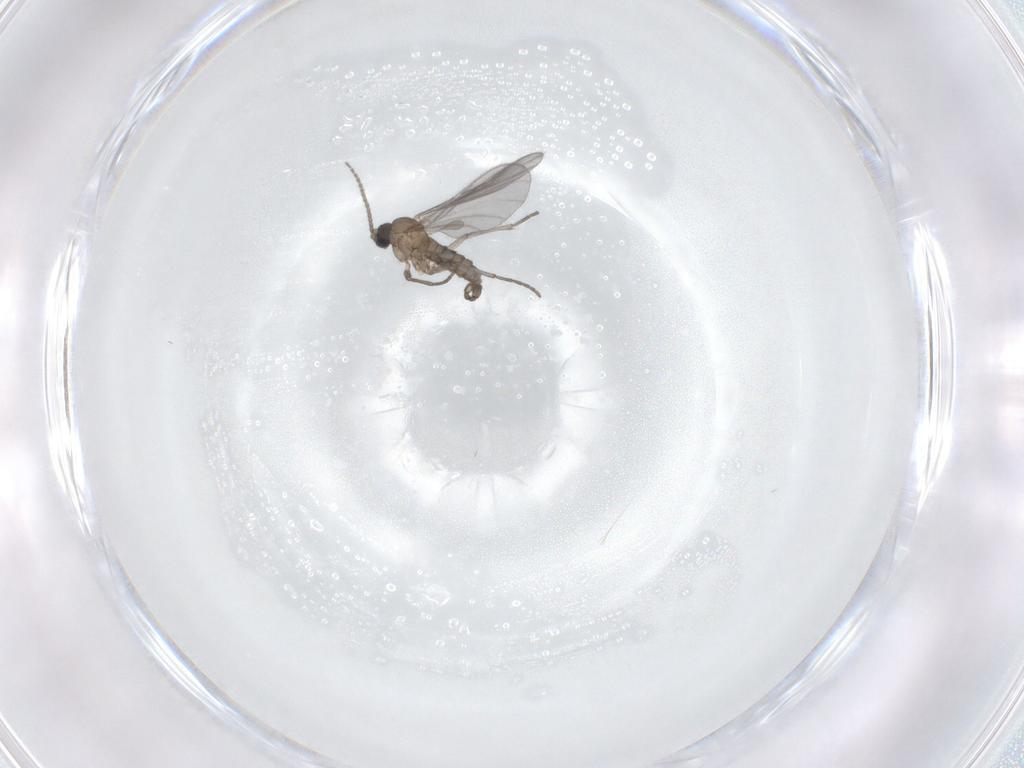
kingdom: Animalia
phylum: Arthropoda
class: Insecta
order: Diptera
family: Sciaridae
